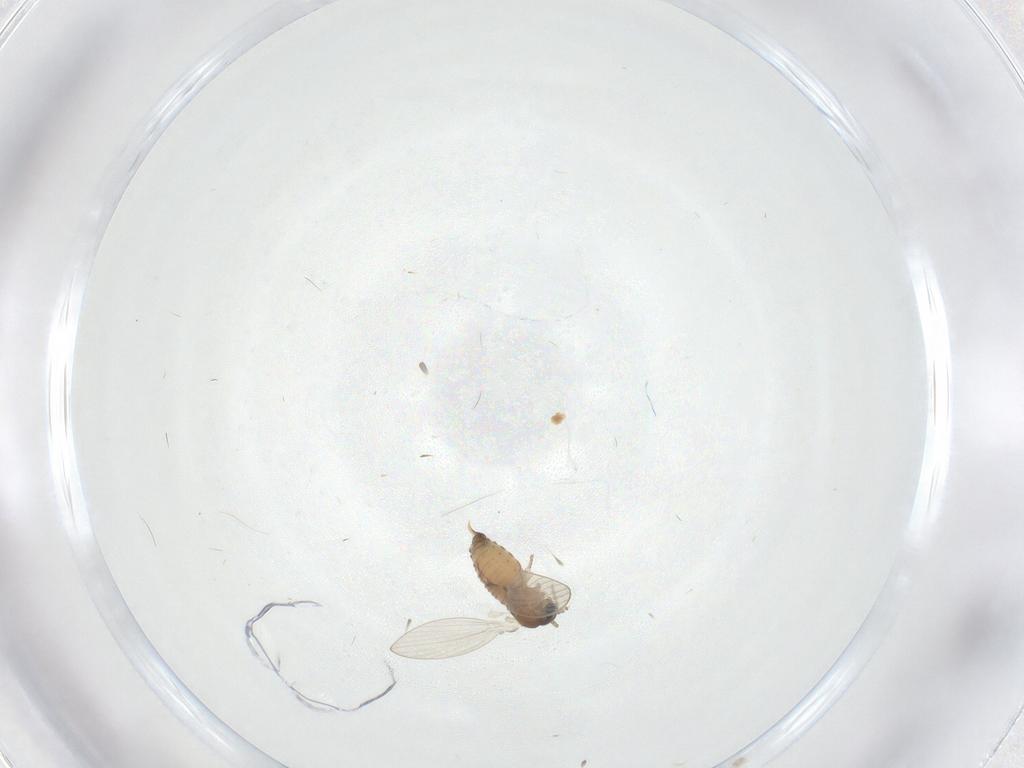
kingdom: Animalia
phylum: Arthropoda
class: Insecta
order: Diptera
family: Psychodidae
